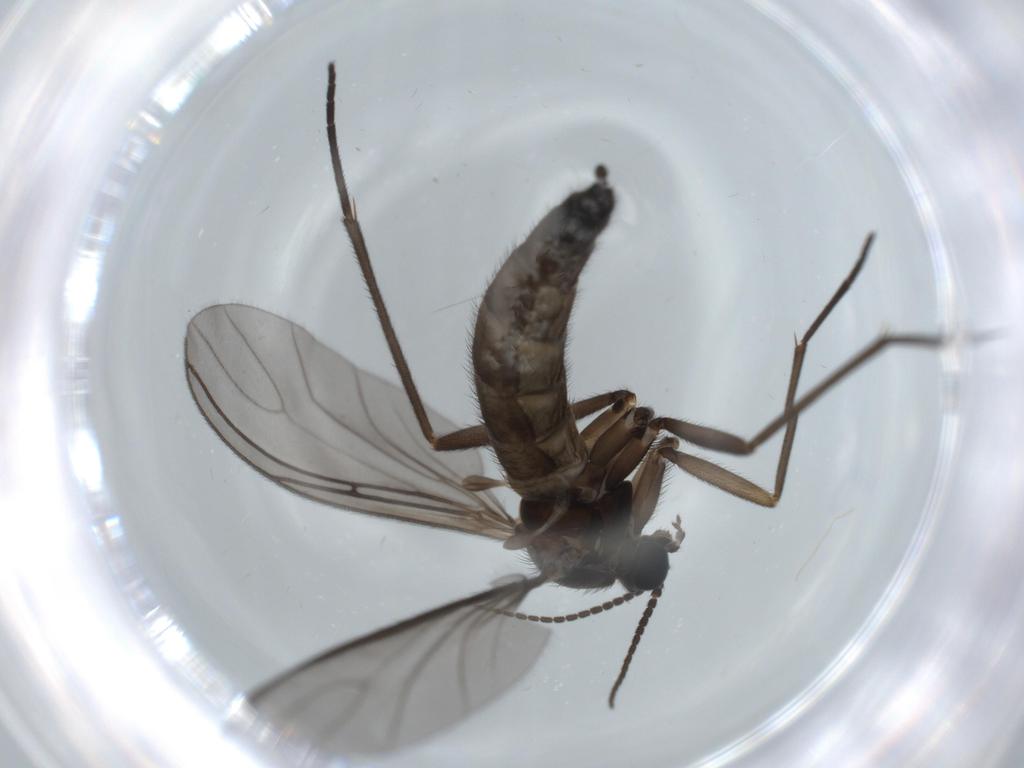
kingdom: Animalia
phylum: Arthropoda
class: Insecta
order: Diptera
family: Sciaridae
